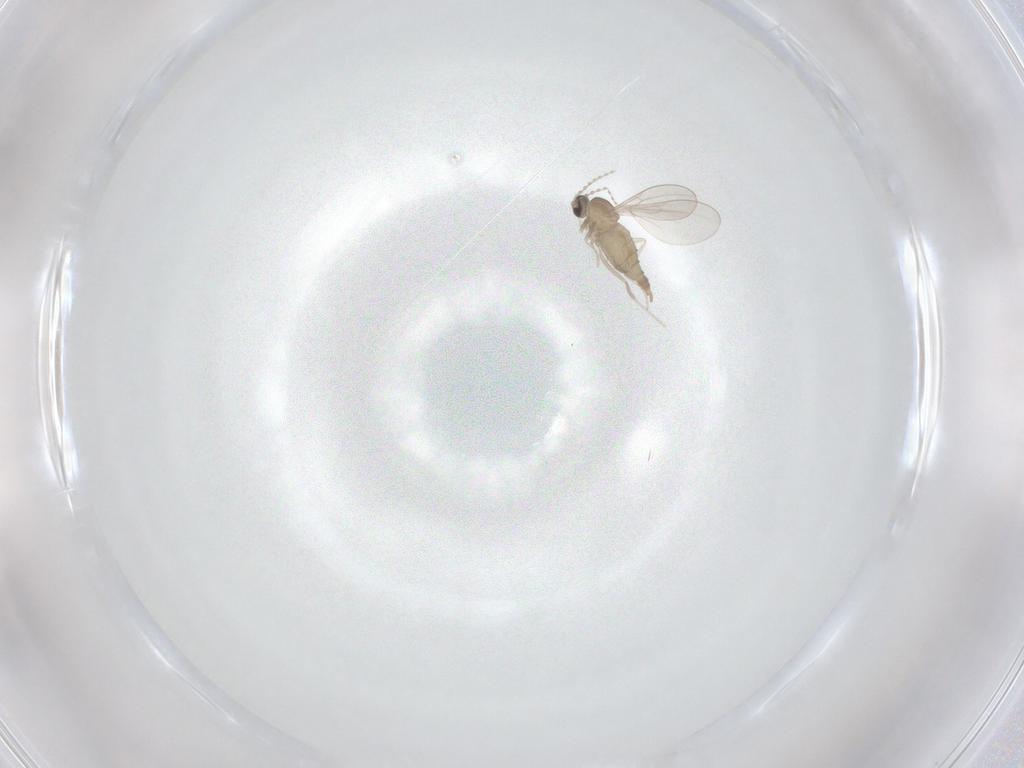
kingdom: Animalia
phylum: Arthropoda
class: Insecta
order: Diptera
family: Cecidomyiidae
